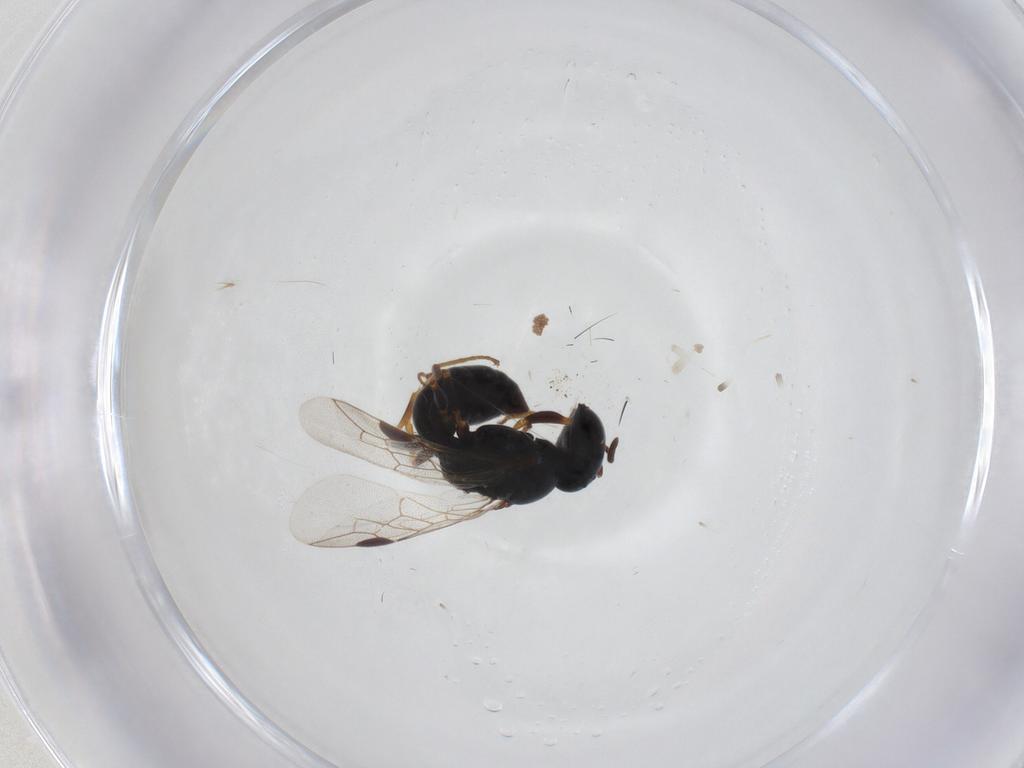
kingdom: Animalia
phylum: Arthropoda
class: Insecta
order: Hymenoptera
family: Pemphredonidae
